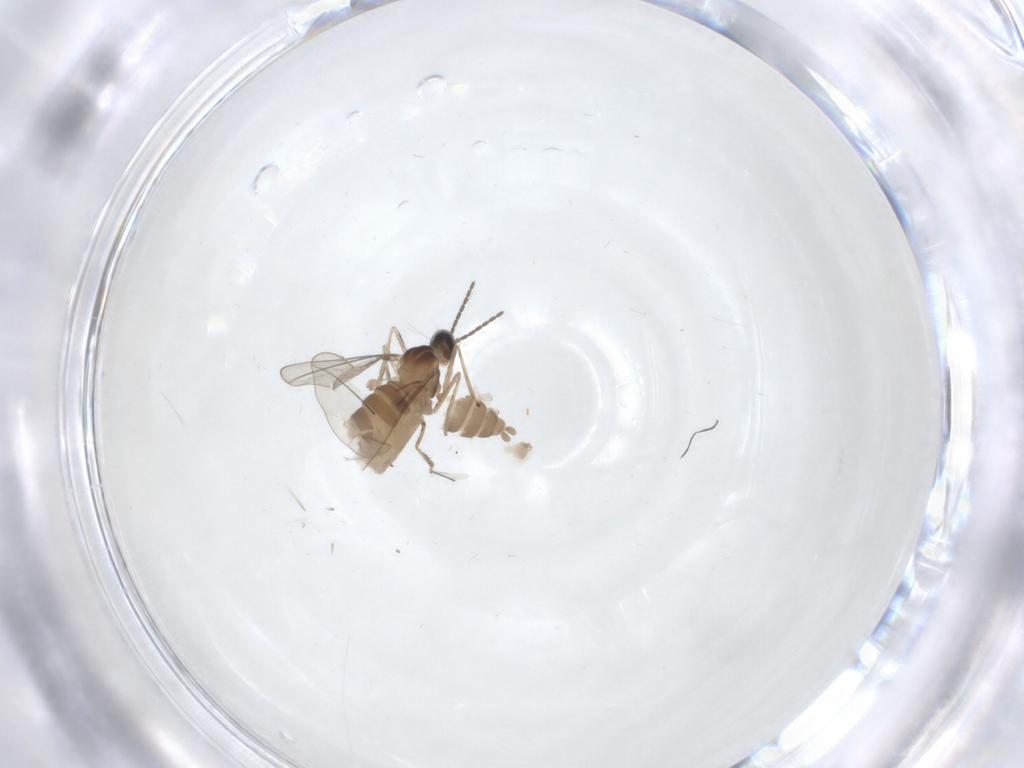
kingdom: Animalia
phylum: Arthropoda
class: Insecta
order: Diptera
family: Cecidomyiidae
